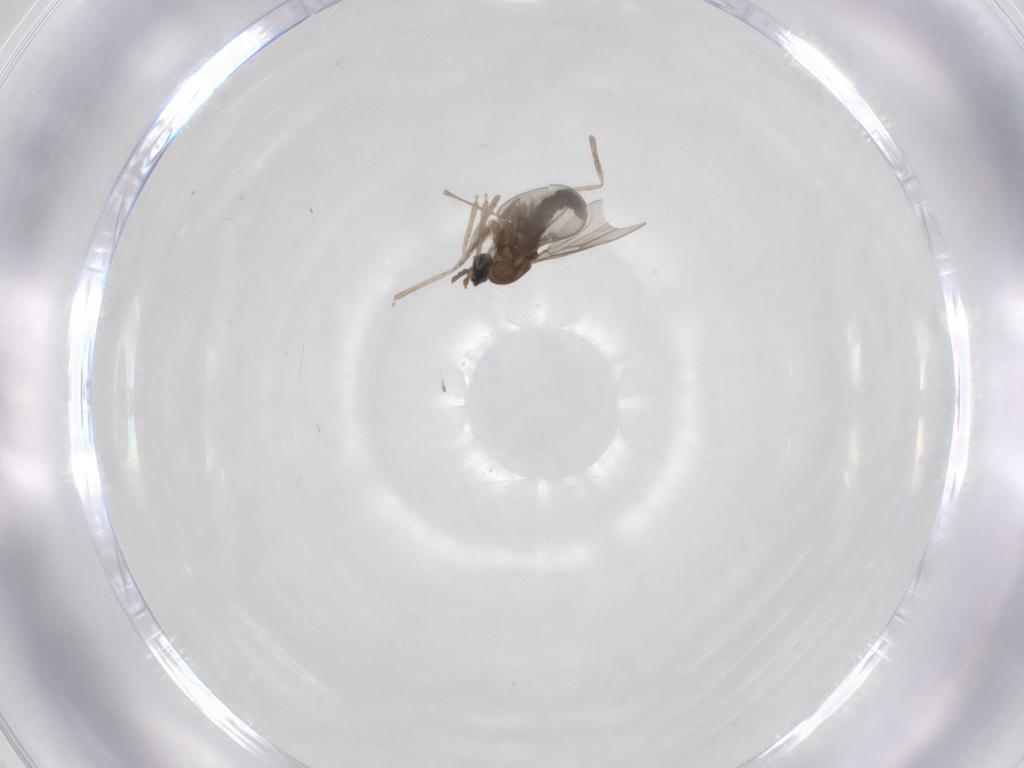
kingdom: Animalia
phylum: Arthropoda
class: Insecta
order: Diptera
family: Cecidomyiidae
